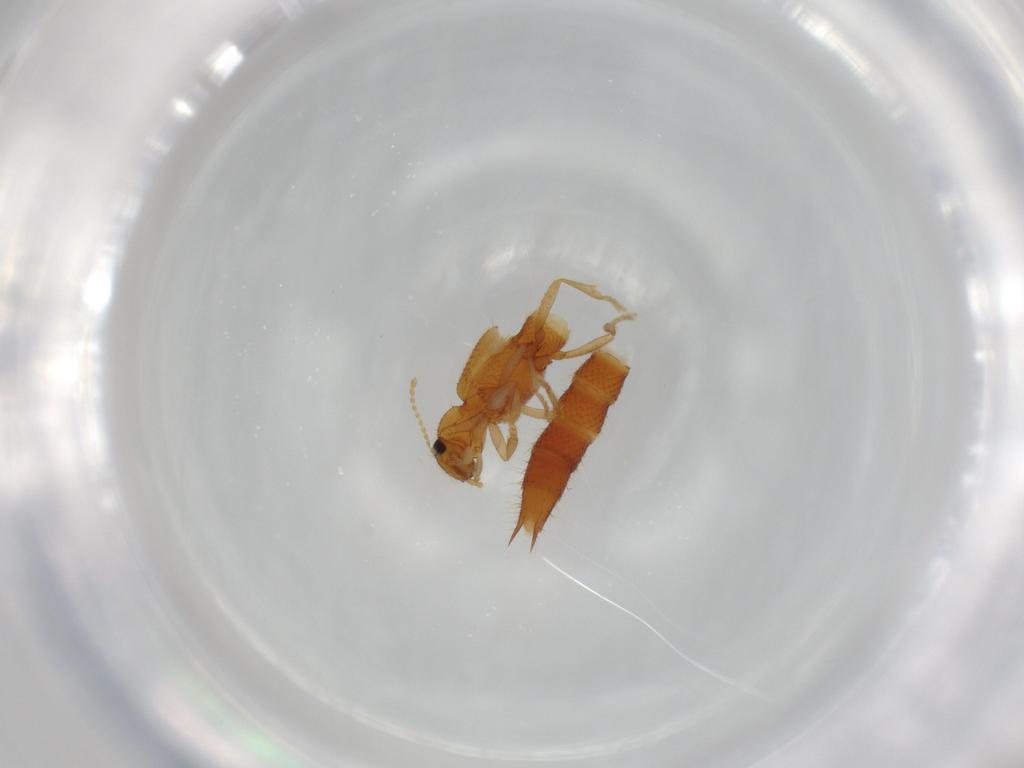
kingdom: Animalia
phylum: Arthropoda
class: Insecta
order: Coleoptera
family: Staphylinidae
